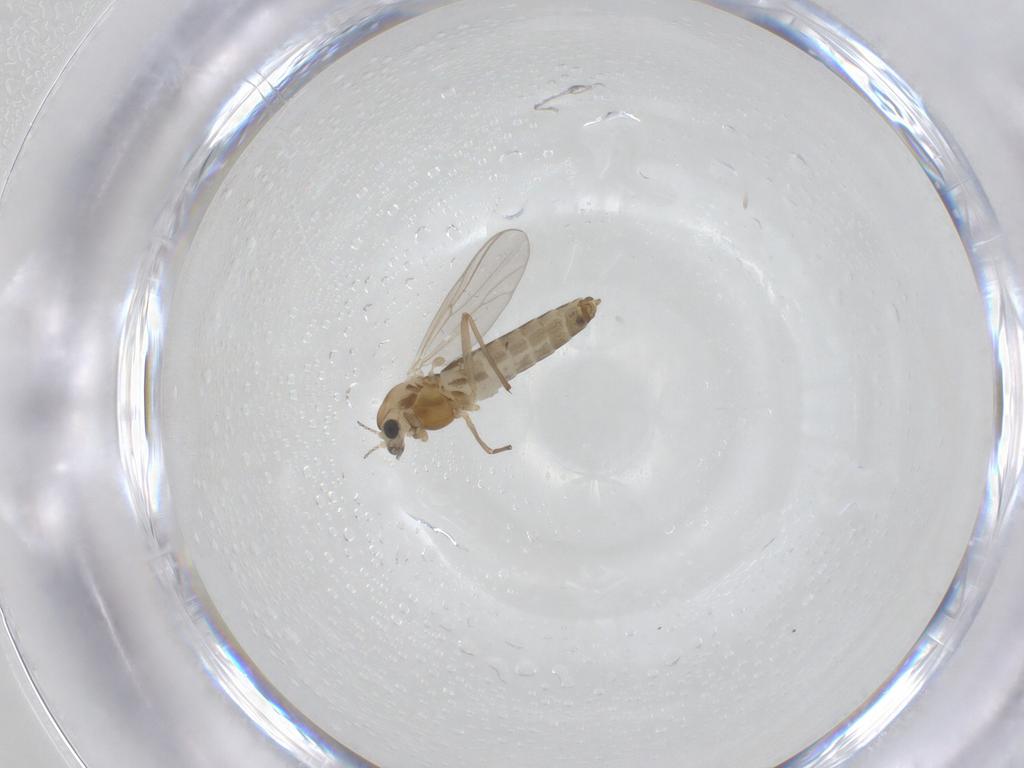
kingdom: Animalia
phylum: Arthropoda
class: Insecta
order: Diptera
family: Chironomidae
